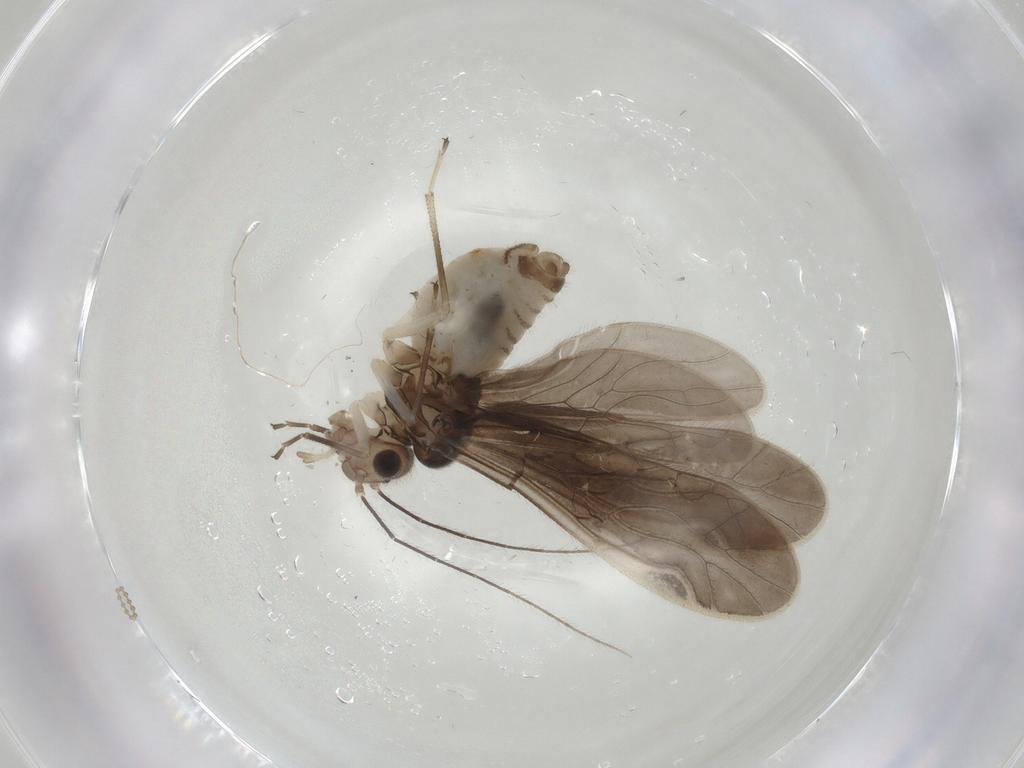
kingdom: Animalia
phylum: Arthropoda
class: Insecta
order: Psocodea
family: Caeciliusidae
